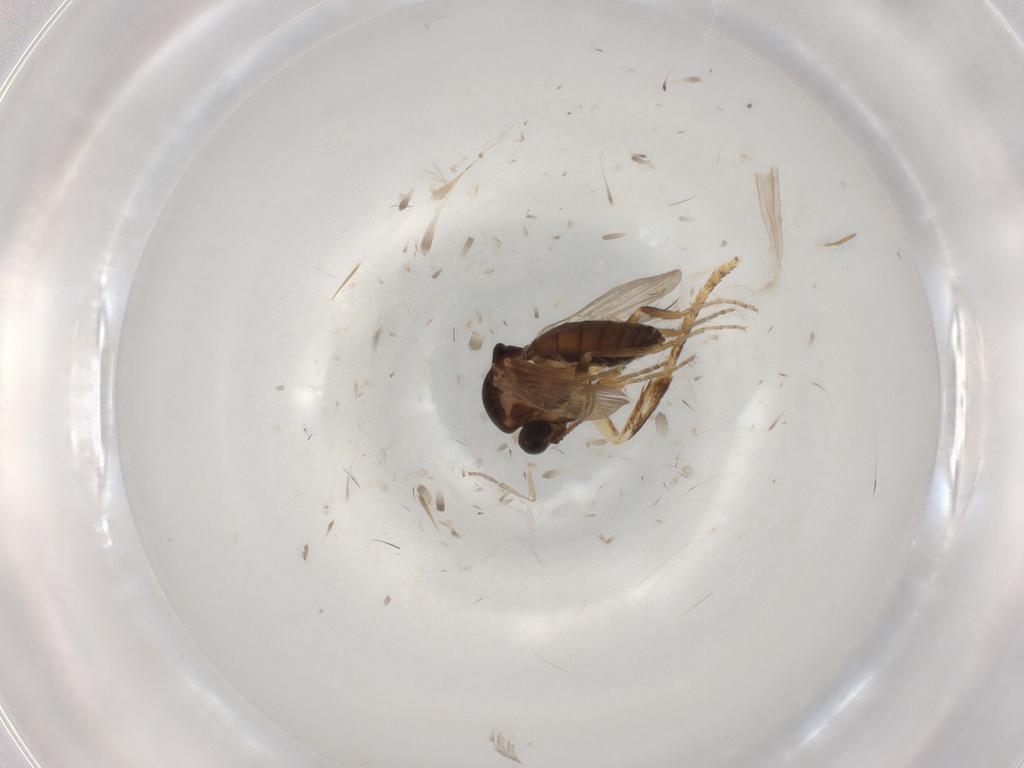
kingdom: Animalia
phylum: Arthropoda
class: Insecta
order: Diptera
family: Ceratopogonidae
